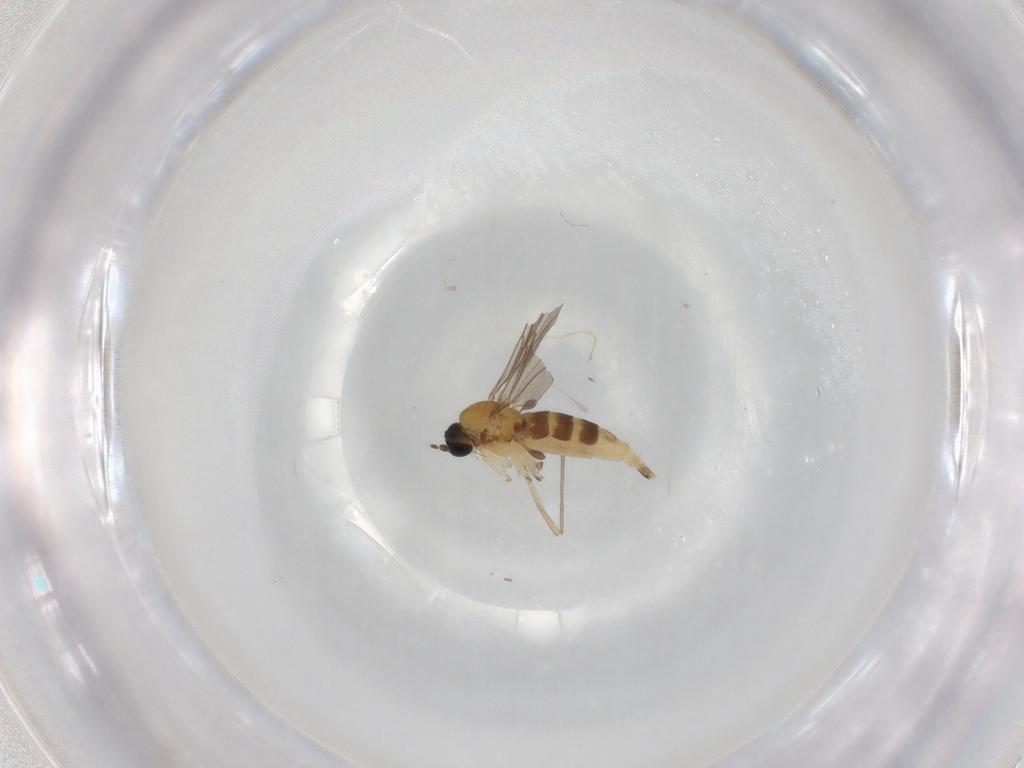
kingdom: Animalia
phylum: Arthropoda
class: Insecta
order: Diptera
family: Sciaridae
